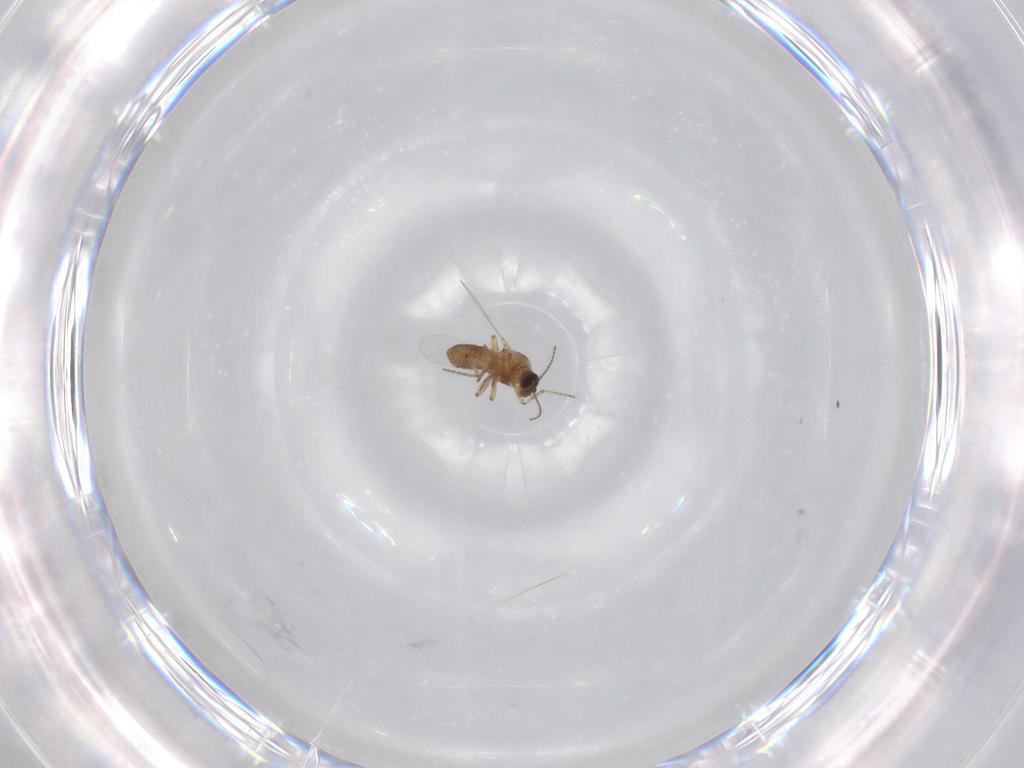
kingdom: Animalia
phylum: Arthropoda
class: Insecta
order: Diptera
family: Ceratopogonidae
